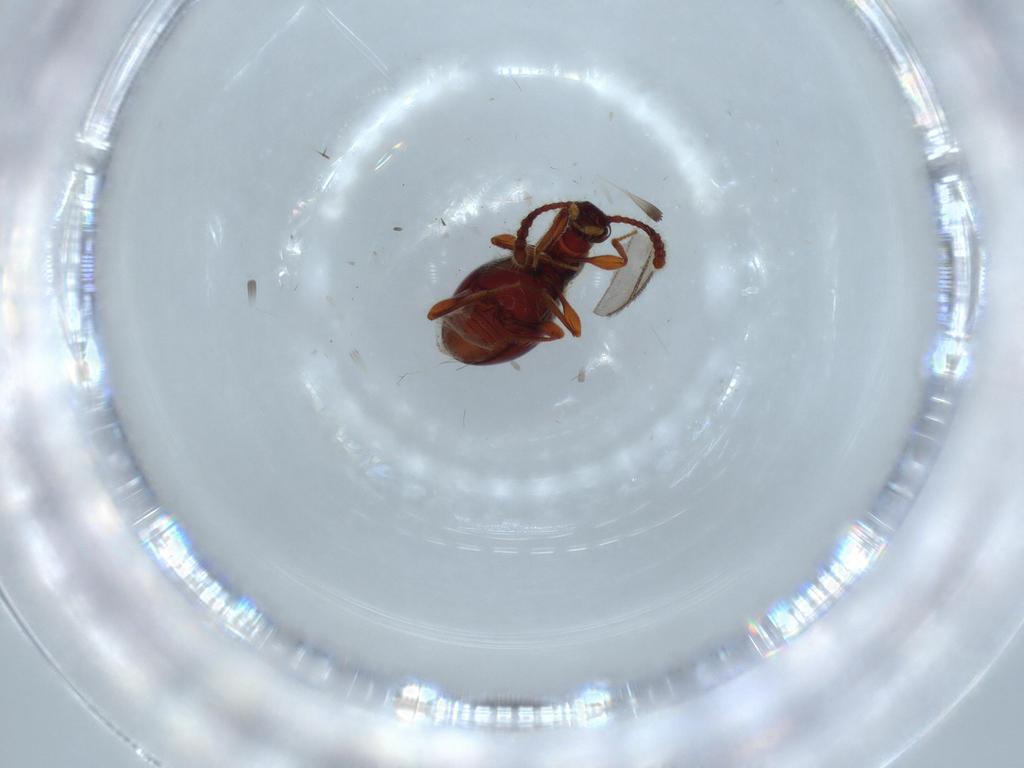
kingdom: Animalia
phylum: Arthropoda
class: Insecta
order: Coleoptera
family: Staphylinidae
